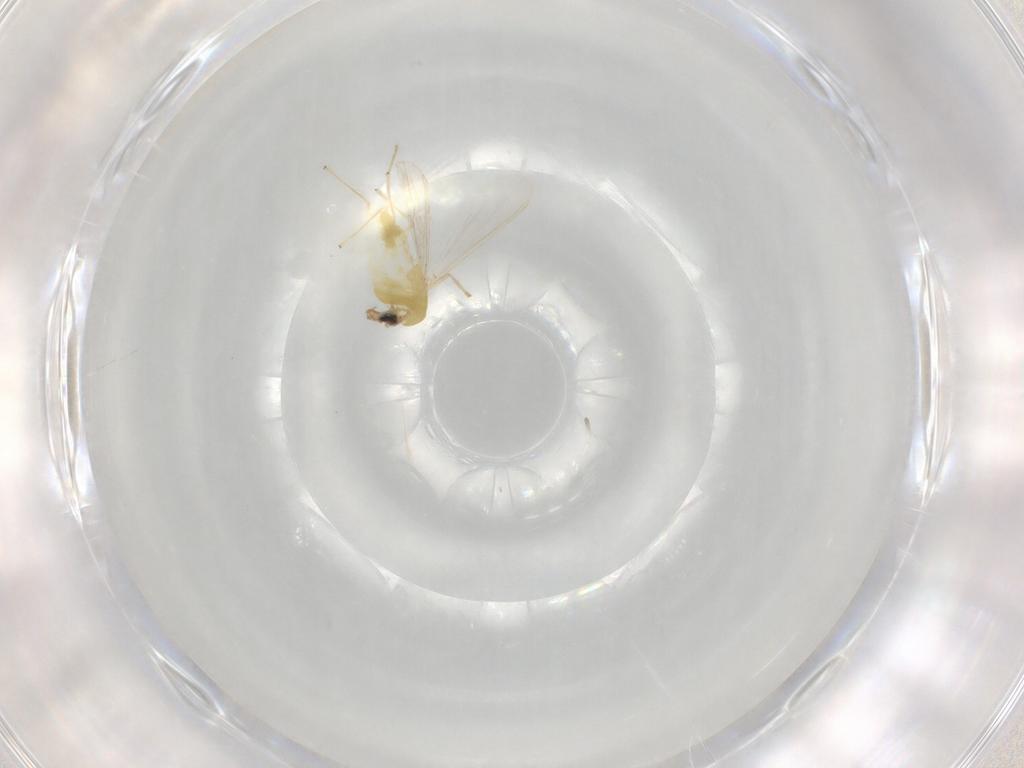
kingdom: Animalia
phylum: Arthropoda
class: Insecta
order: Diptera
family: Chironomidae
